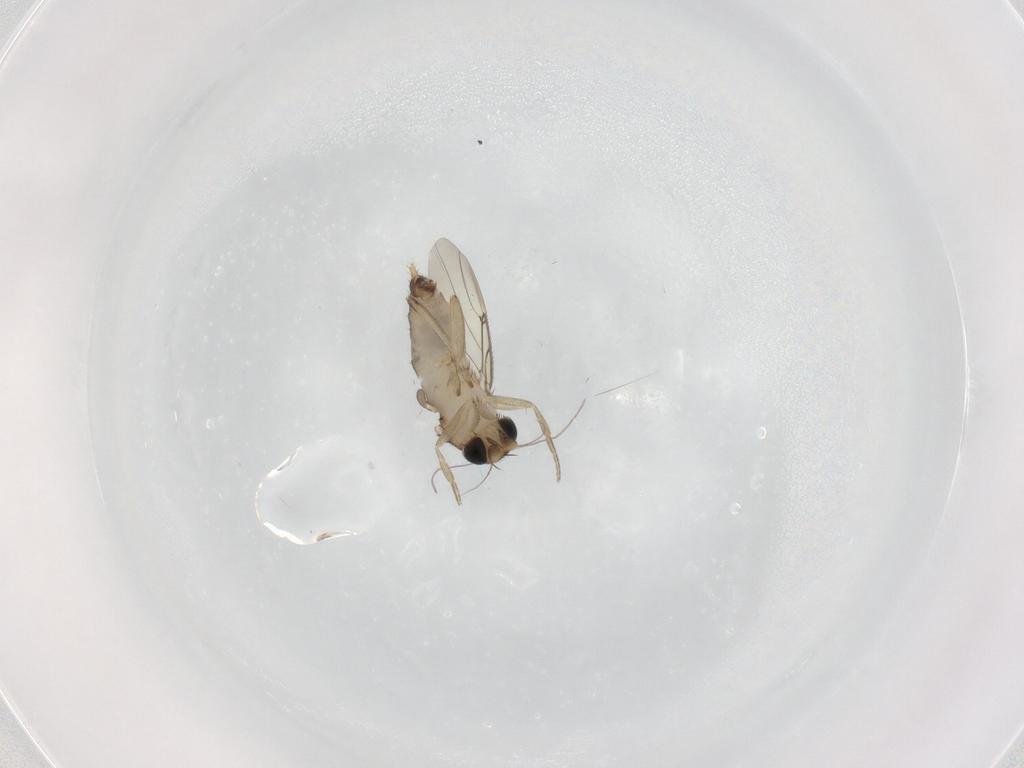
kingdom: Animalia
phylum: Arthropoda
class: Insecta
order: Diptera
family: Phoridae
